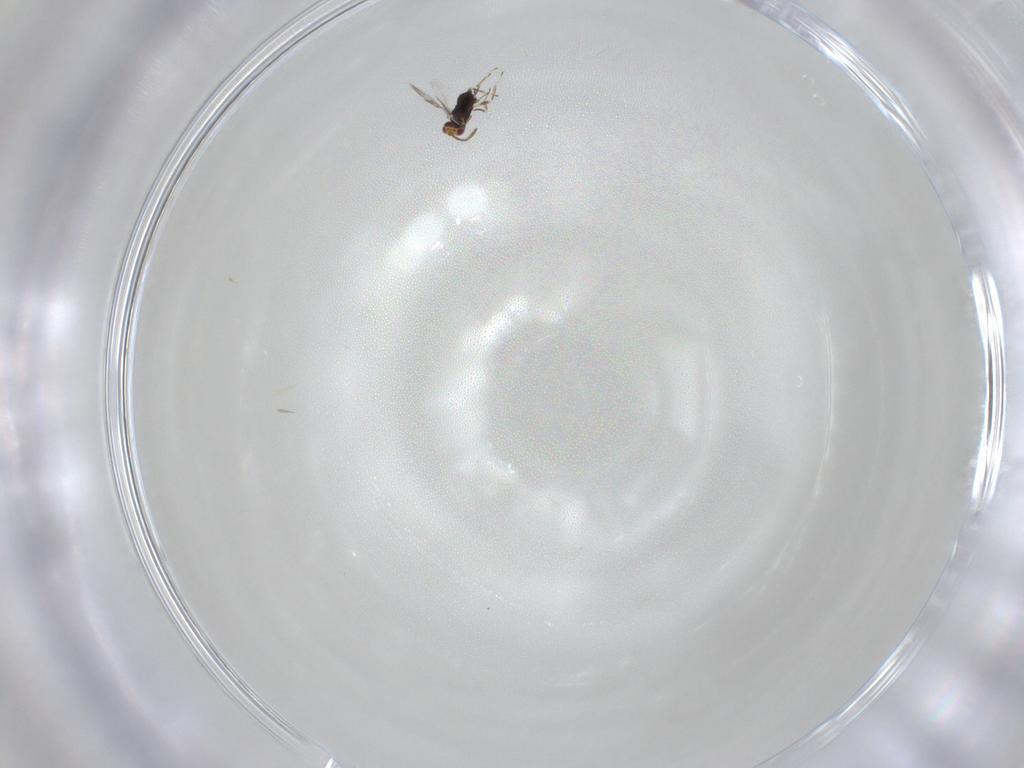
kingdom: Animalia
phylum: Arthropoda
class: Insecta
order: Hymenoptera
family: Azotidae
